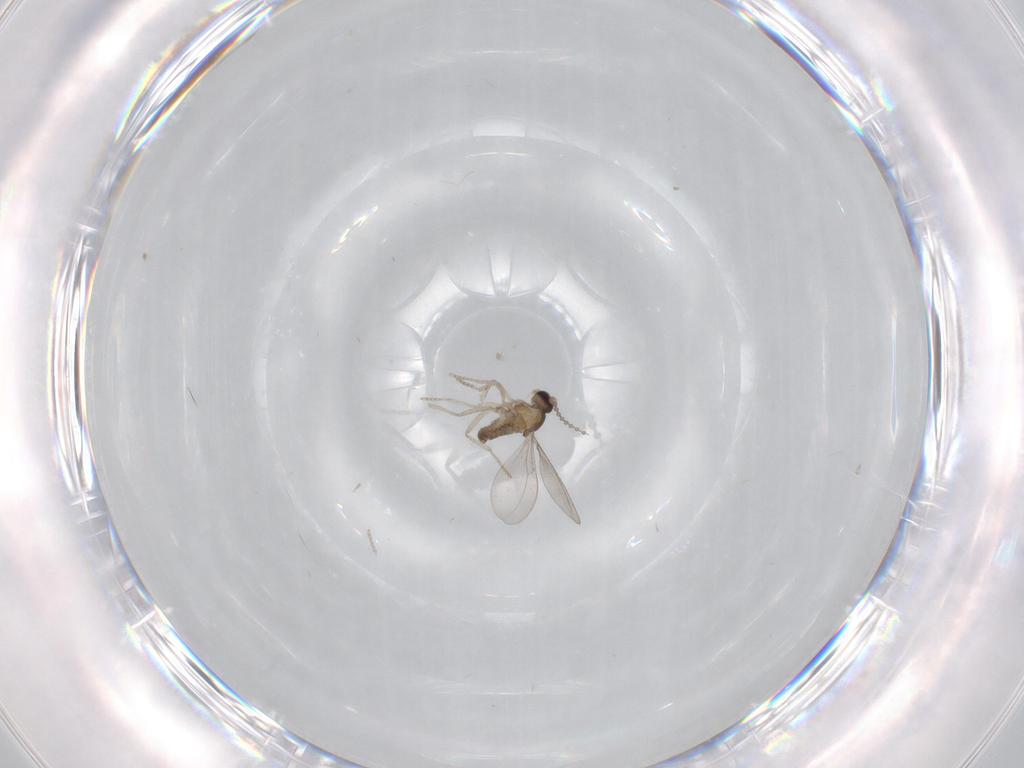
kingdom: Animalia
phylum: Arthropoda
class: Insecta
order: Diptera
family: Cecidomyiidae
